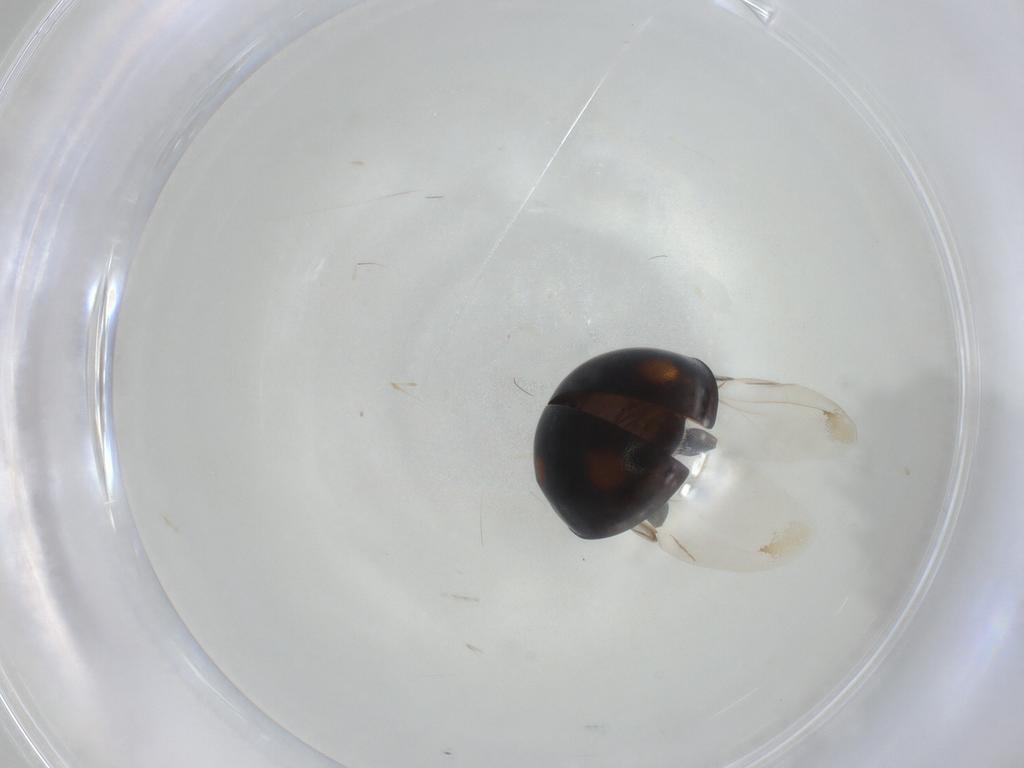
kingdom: Animalia
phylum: Arthropoda
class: Insecta
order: Coleoptera
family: Coccinellidae
